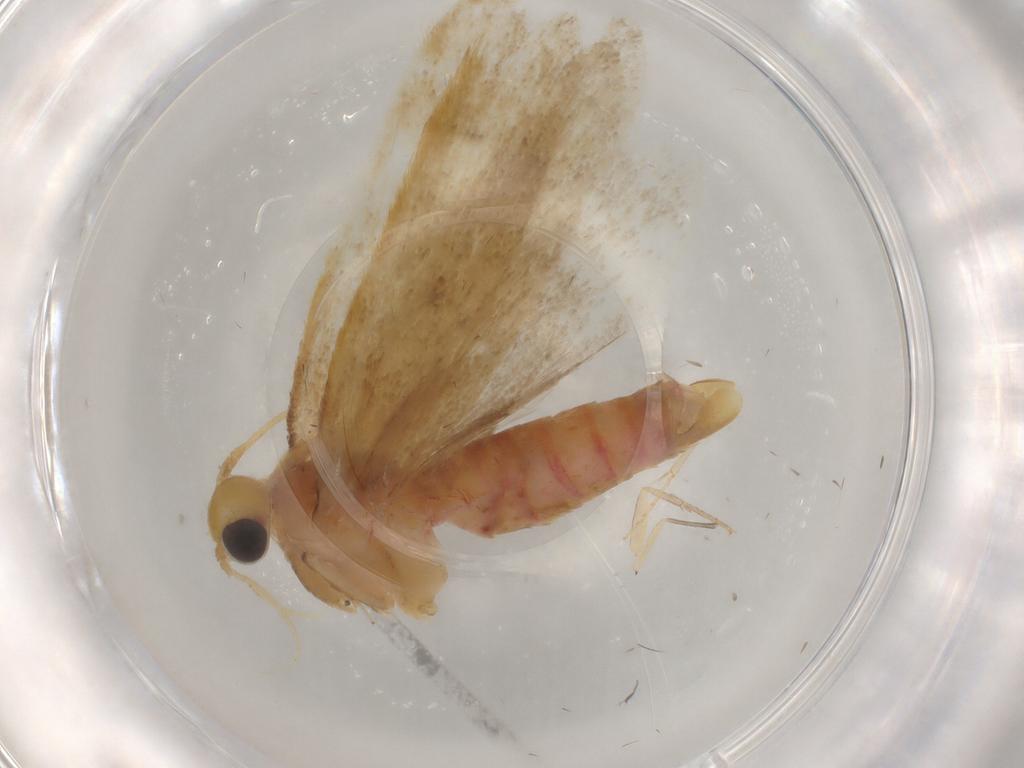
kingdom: Animalia
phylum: Arthropoda
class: Insecta
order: Lepidoptera
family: Autostichidae
